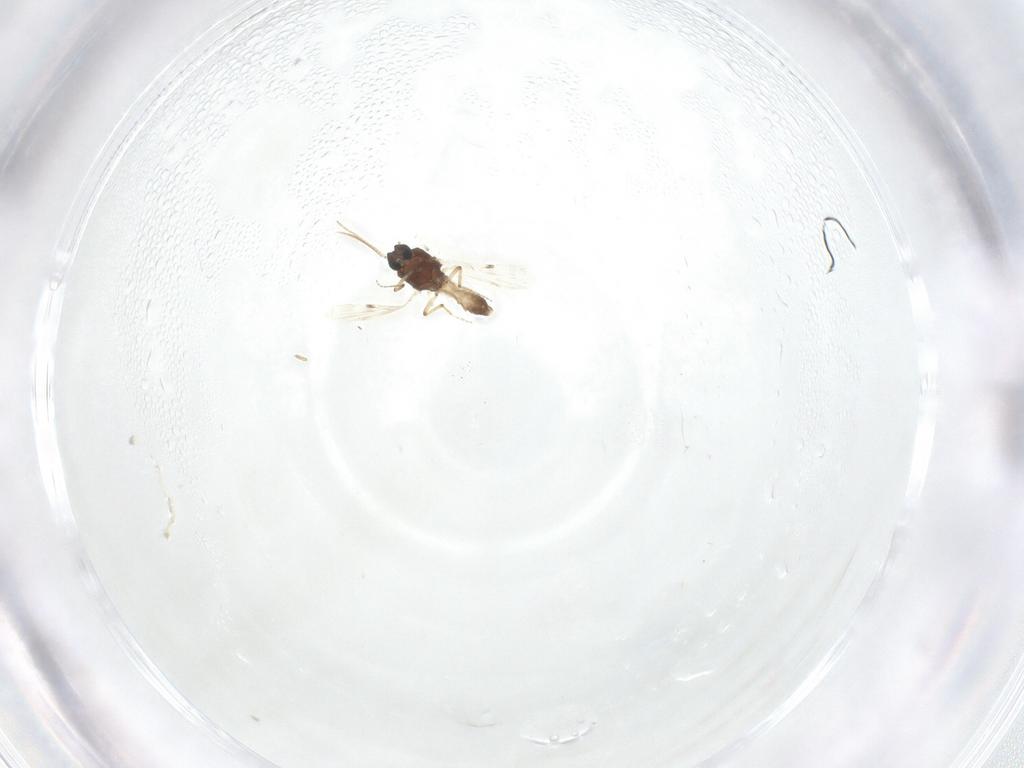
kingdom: Animalia
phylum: Arthropoda
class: Insecta
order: Diptera
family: Phoridae
